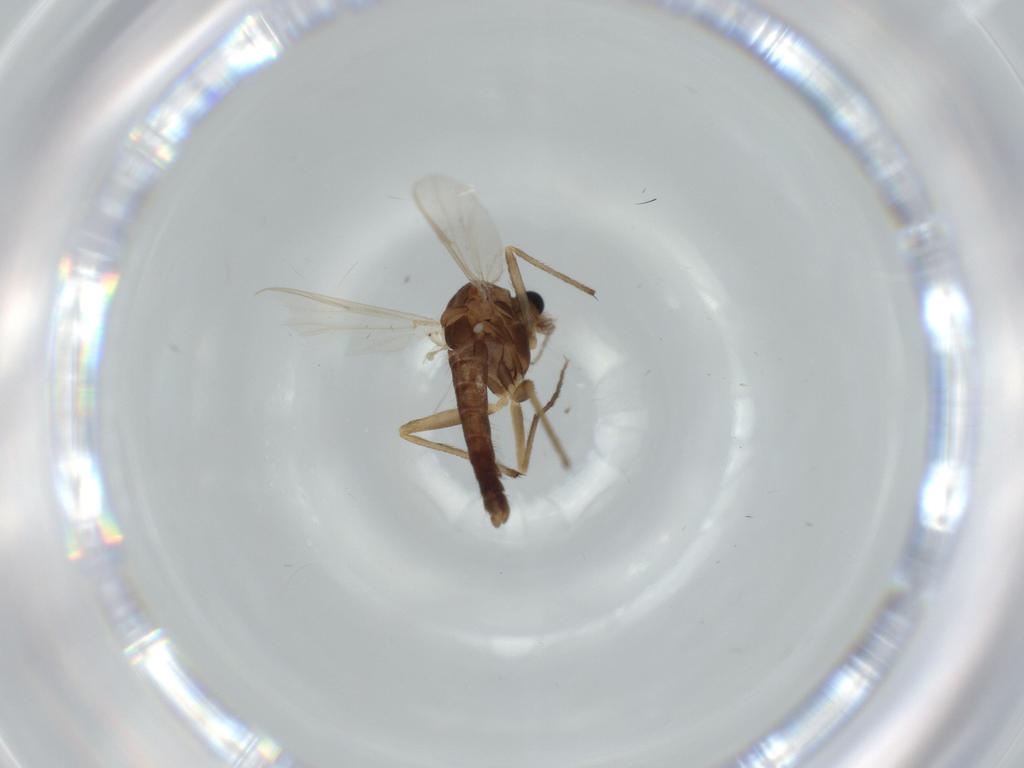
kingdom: Animalia
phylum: Arthropoda
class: Insecta
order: Diptera
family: Chironomidae
